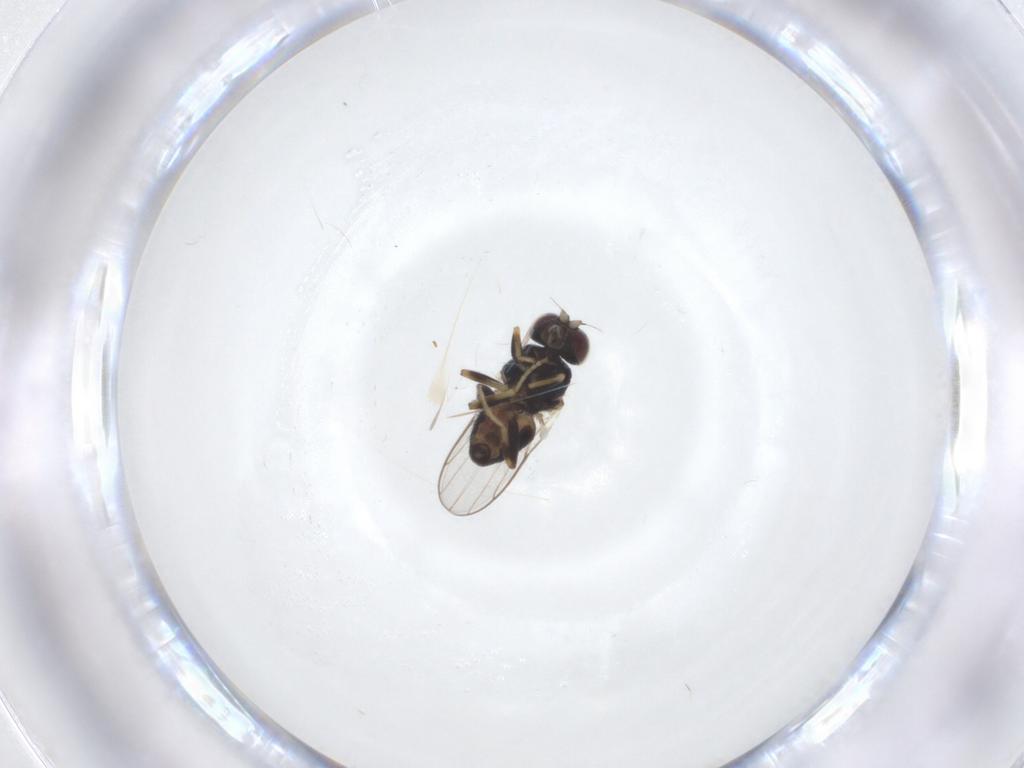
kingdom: Animalia
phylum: Arthropoda
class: Insecta
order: Diptera
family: Chloropidae
